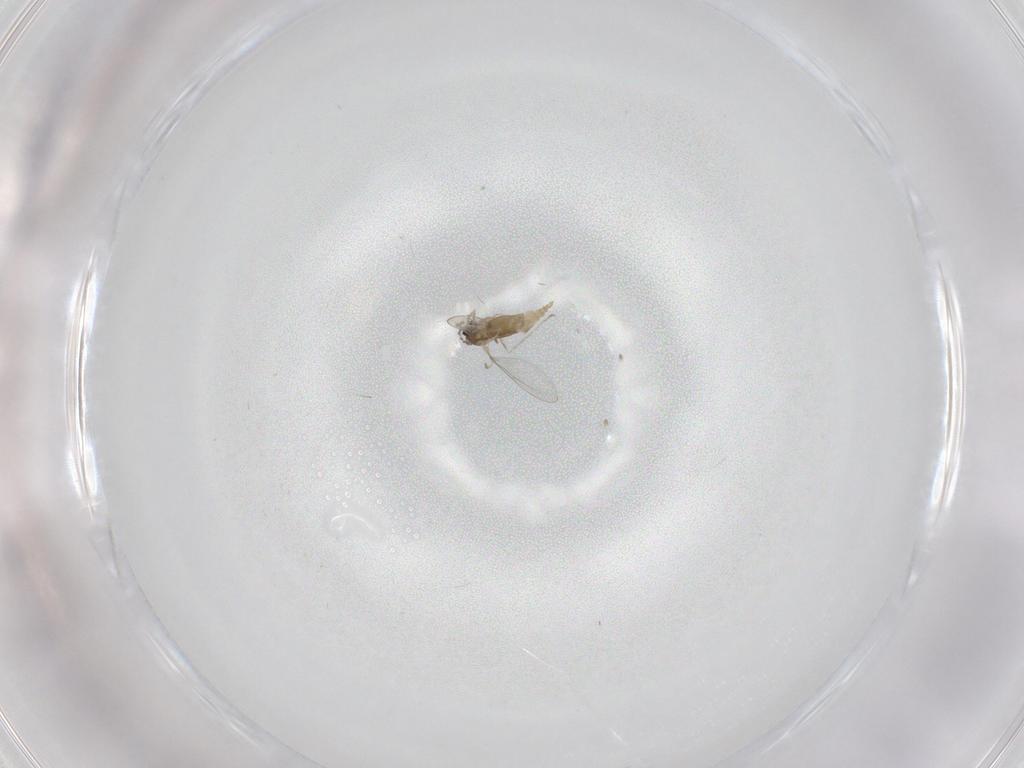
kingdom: Animalia
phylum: Arthropoda
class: Insecta
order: Diptera
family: Cecidomyiidae
